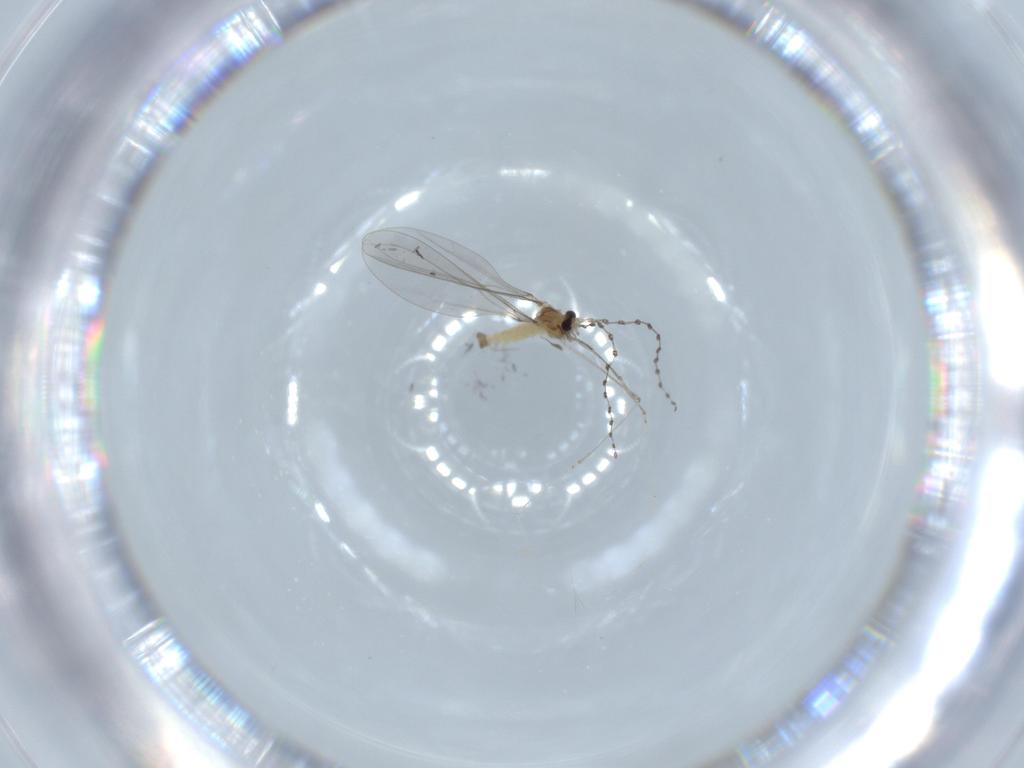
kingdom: Animalia
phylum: Arthropoda
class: Insecta
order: Diptera
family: Cecidomyiidae
